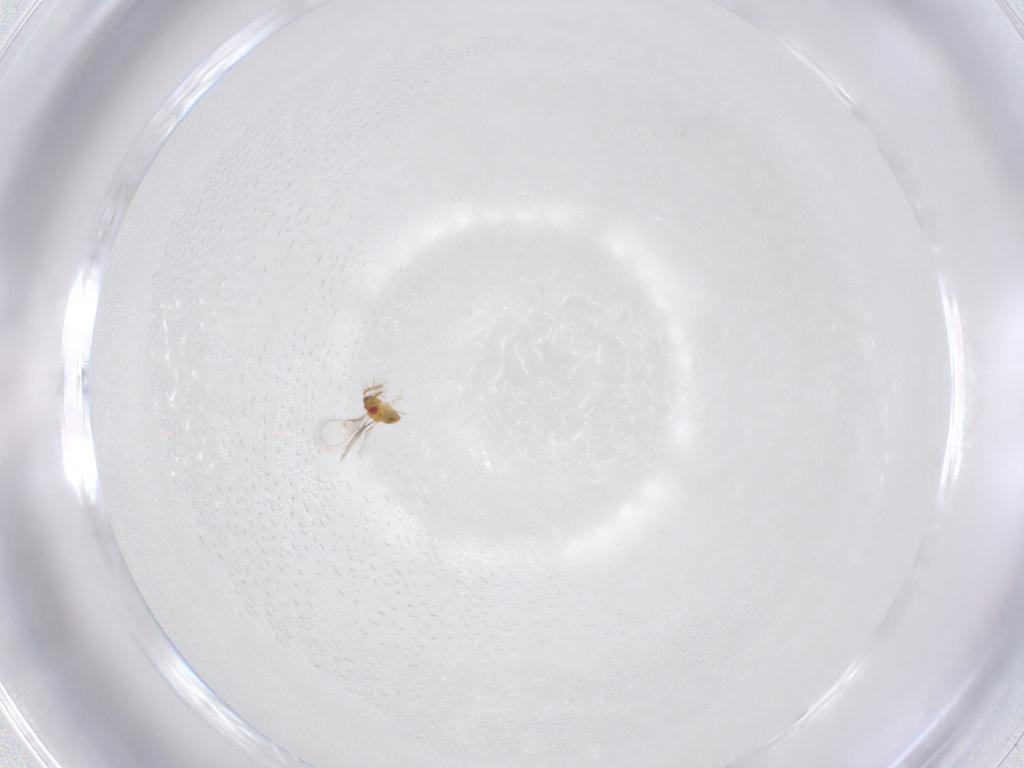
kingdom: Animalia
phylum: Arthropoda
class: Insecta
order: Hymenoptera
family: Trichogrammatidae
